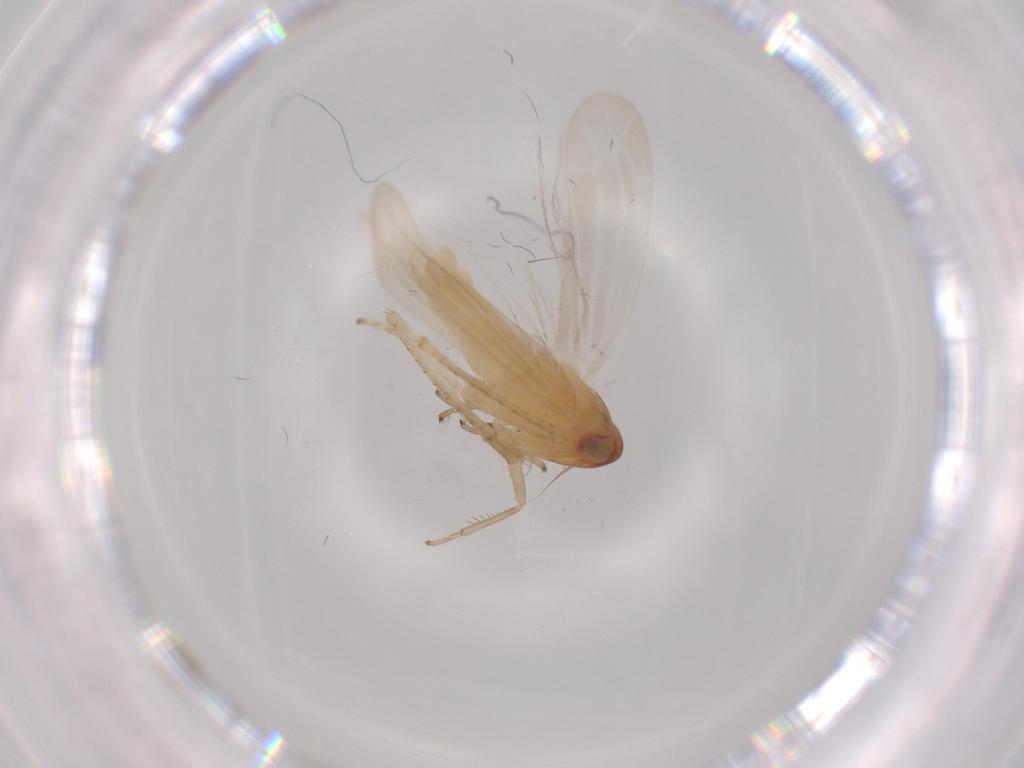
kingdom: Animalia
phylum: Arthropoda
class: Insecta
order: Hemiptera
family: Cicadellidae
